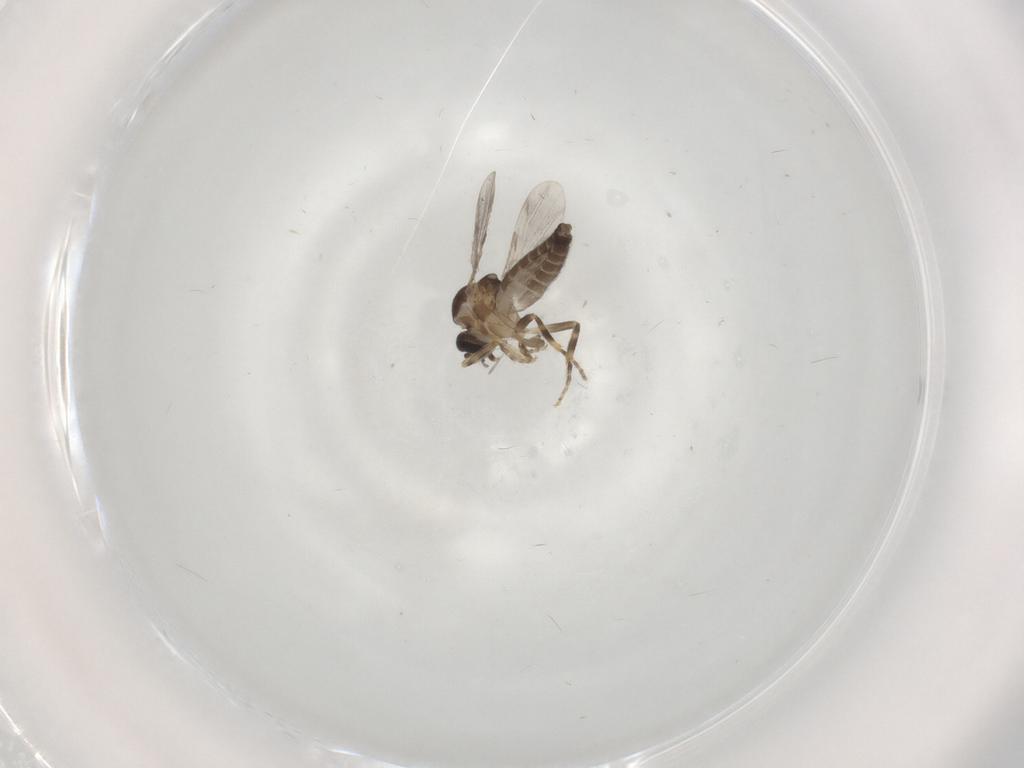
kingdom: Animalia
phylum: Arthropoda
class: Insecta
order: Diptera
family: Ceratopogonidae
